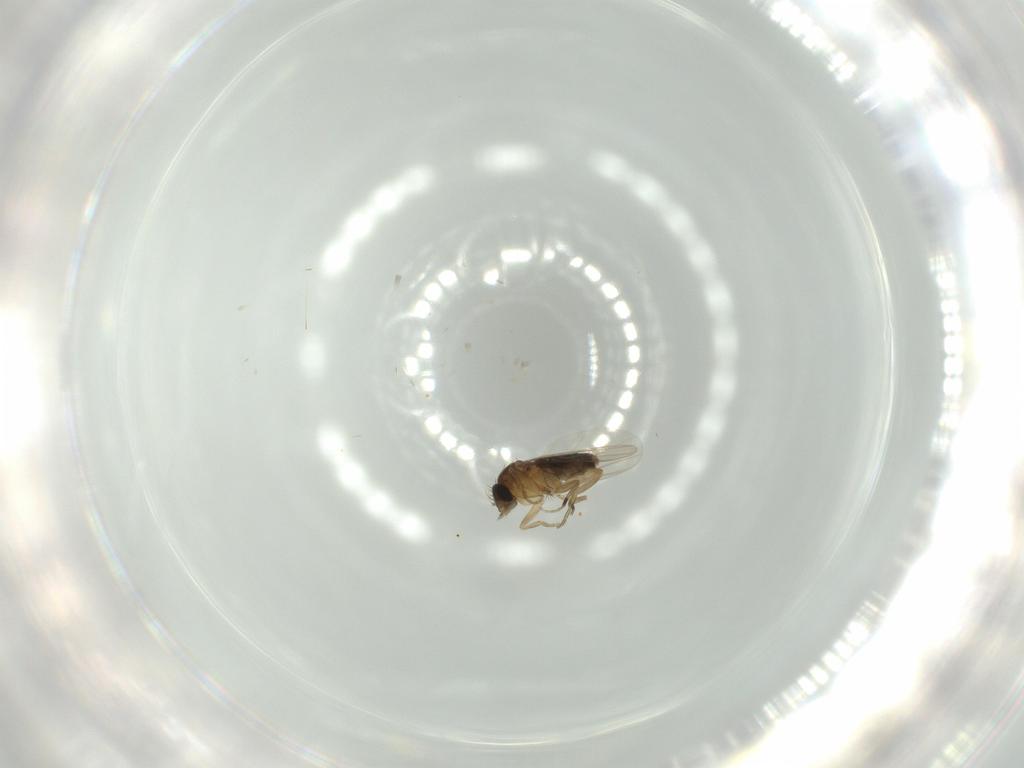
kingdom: Animalia
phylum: Arthropoda
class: Insecta
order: Diptera
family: Phoridae
